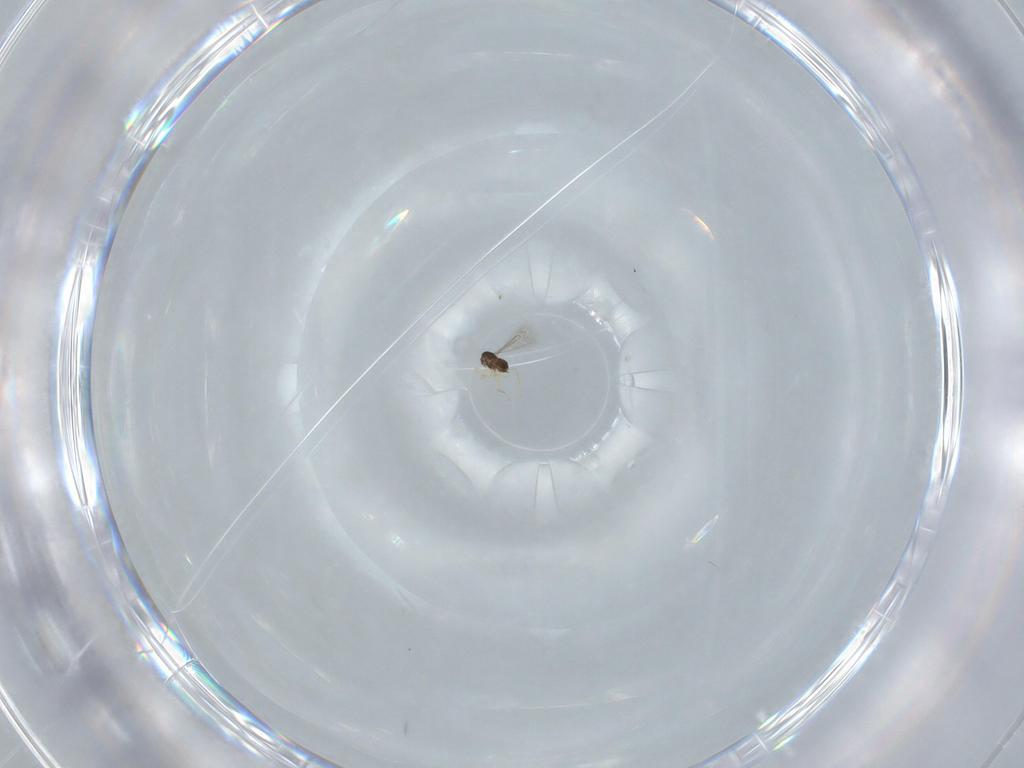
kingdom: Animalia
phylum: Arthropoda
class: Insecta
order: Hymenoptera
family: Mymaridae
